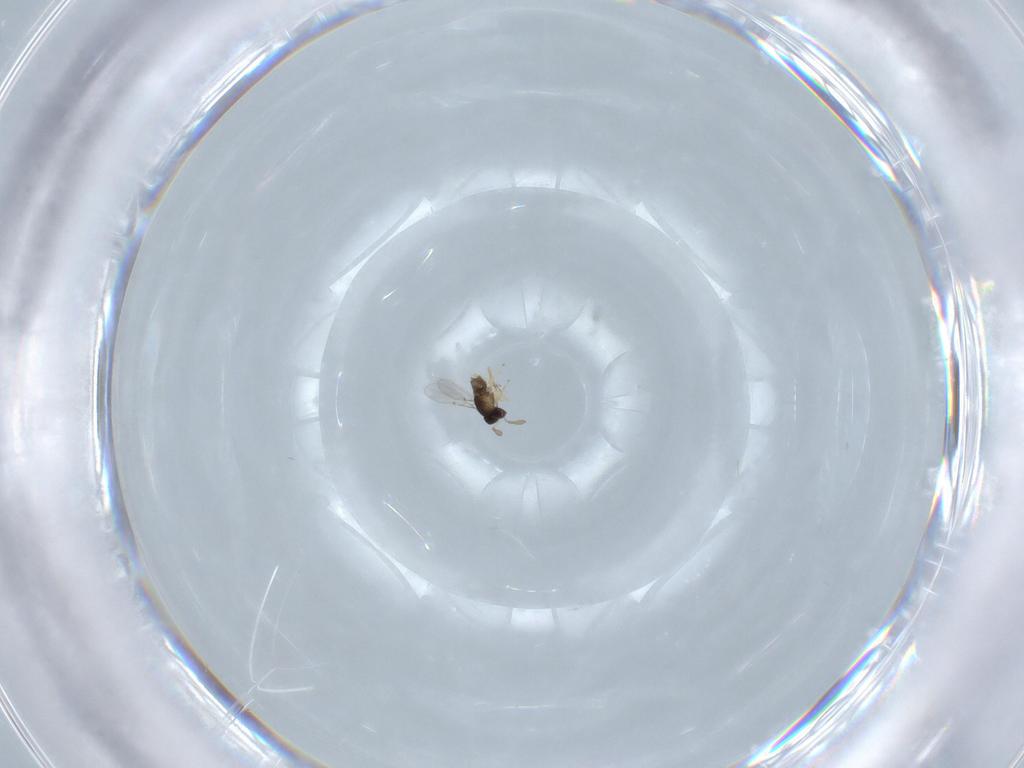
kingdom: Animalia
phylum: Arthropoda
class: Insecta
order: Hymenoptera
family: Encyrtidae
